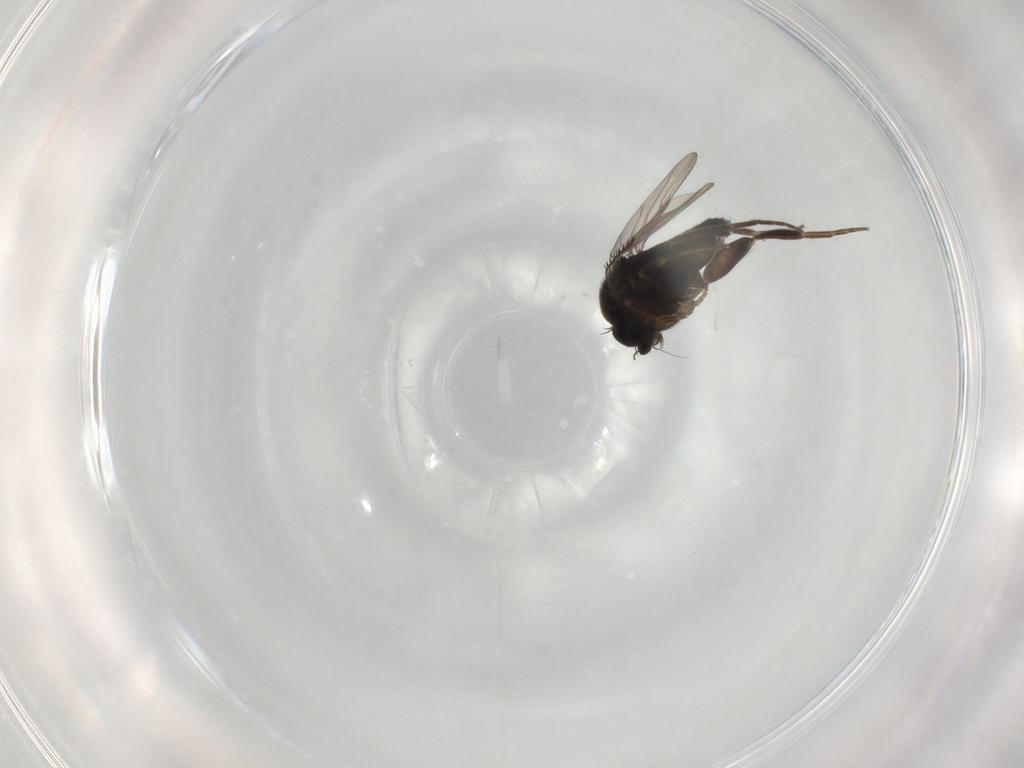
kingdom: Animalia
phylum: Arthropoda
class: Insecta
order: Diptera
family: Phoridae
